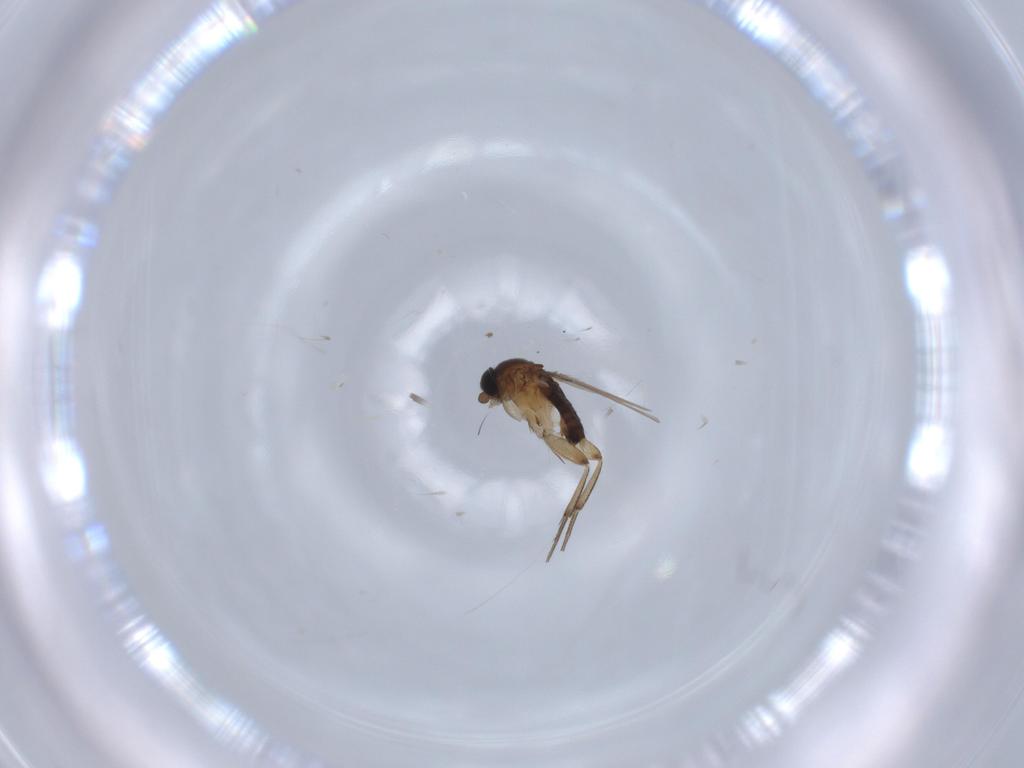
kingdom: Animalia
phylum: Arthropoda
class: Insecta
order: Diptera
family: Phoridae
